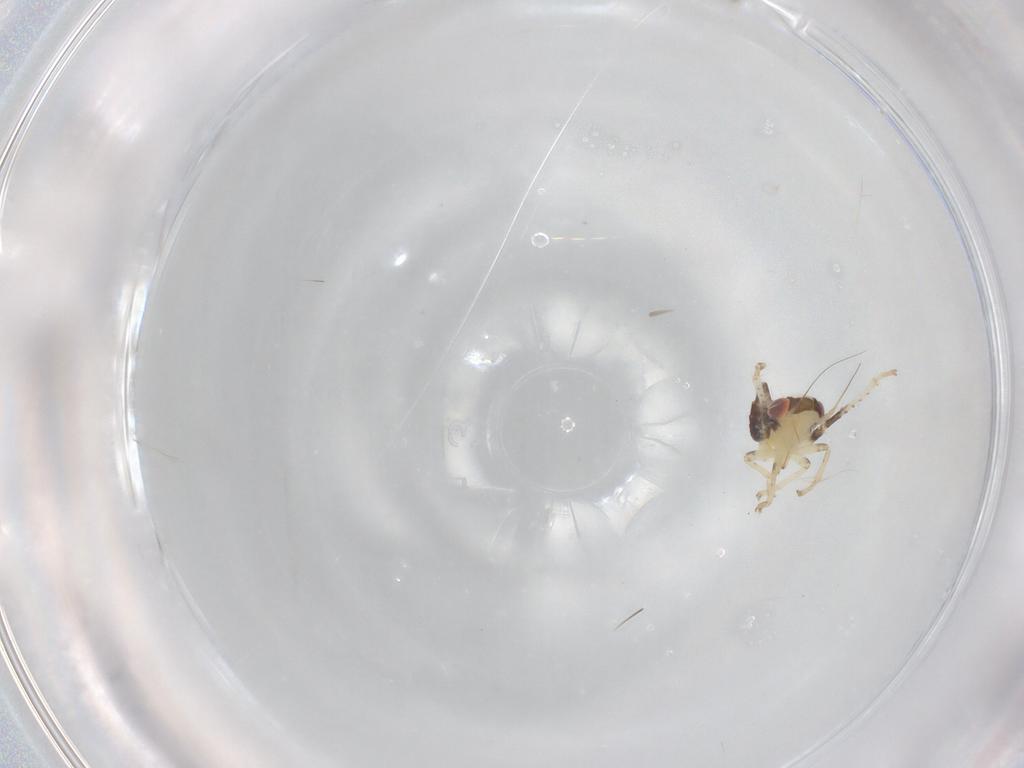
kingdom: Animalia
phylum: Arthropoda
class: Insecta
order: Hemiptera
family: Cicadellidae
